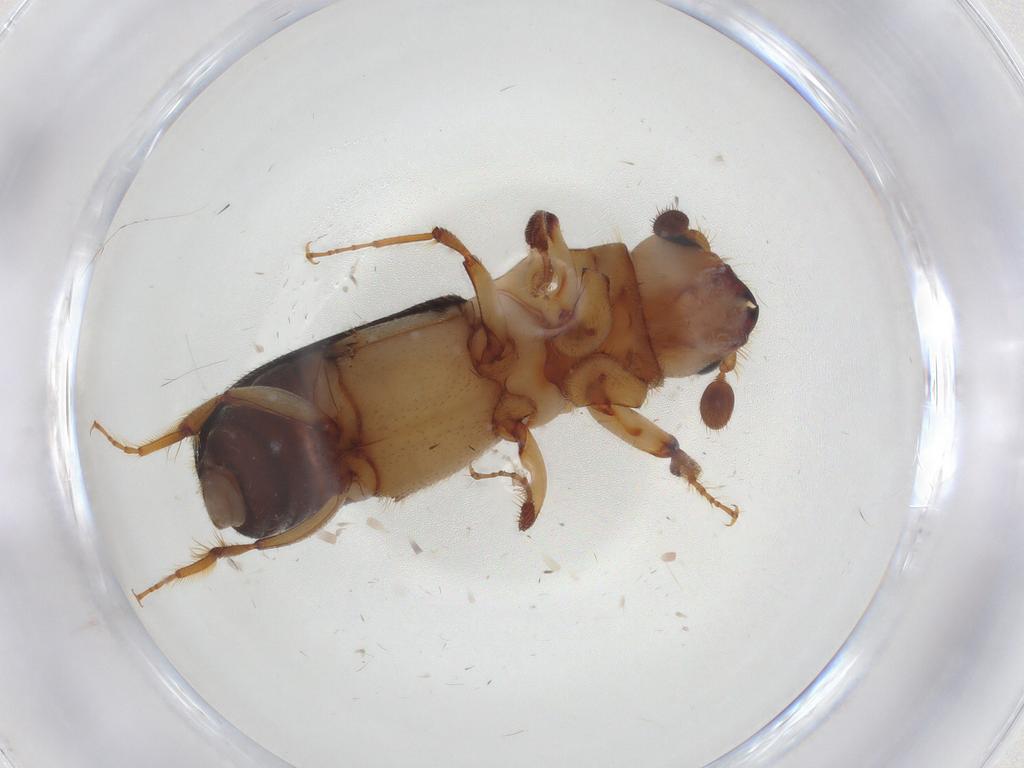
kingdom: Animalia
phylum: Arthropoda
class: Insecta
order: Coleoptera
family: Curculionidae
